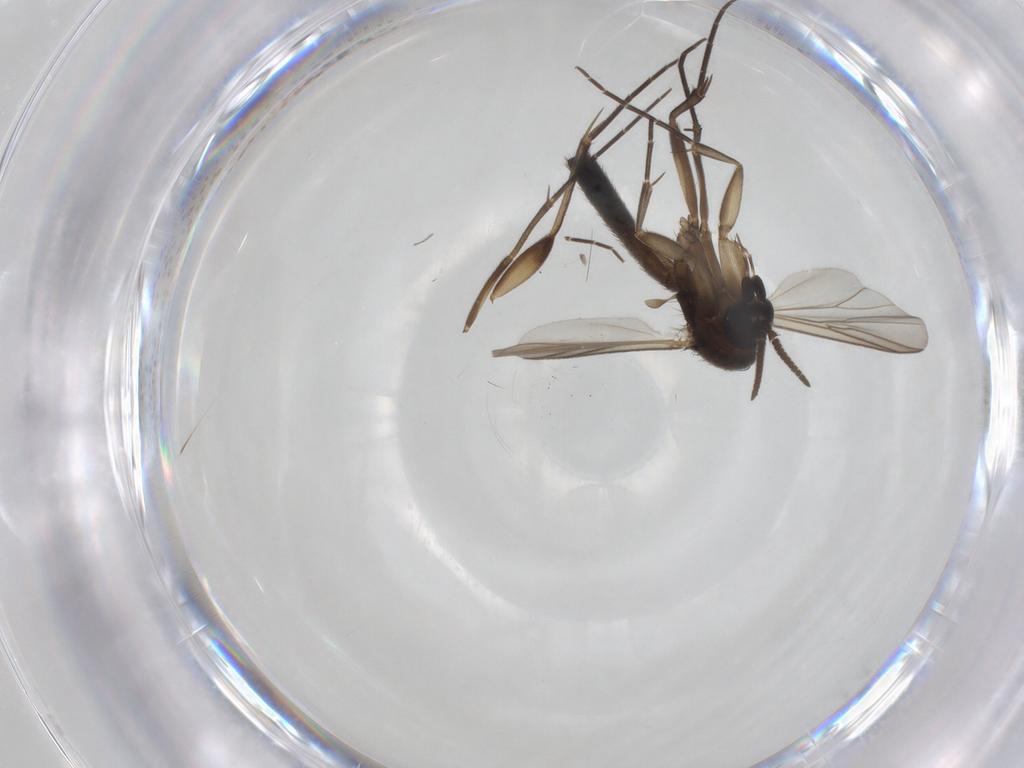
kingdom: Animalia
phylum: Arthropoda
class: Insecta
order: Diptera
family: Mycetophilidae
